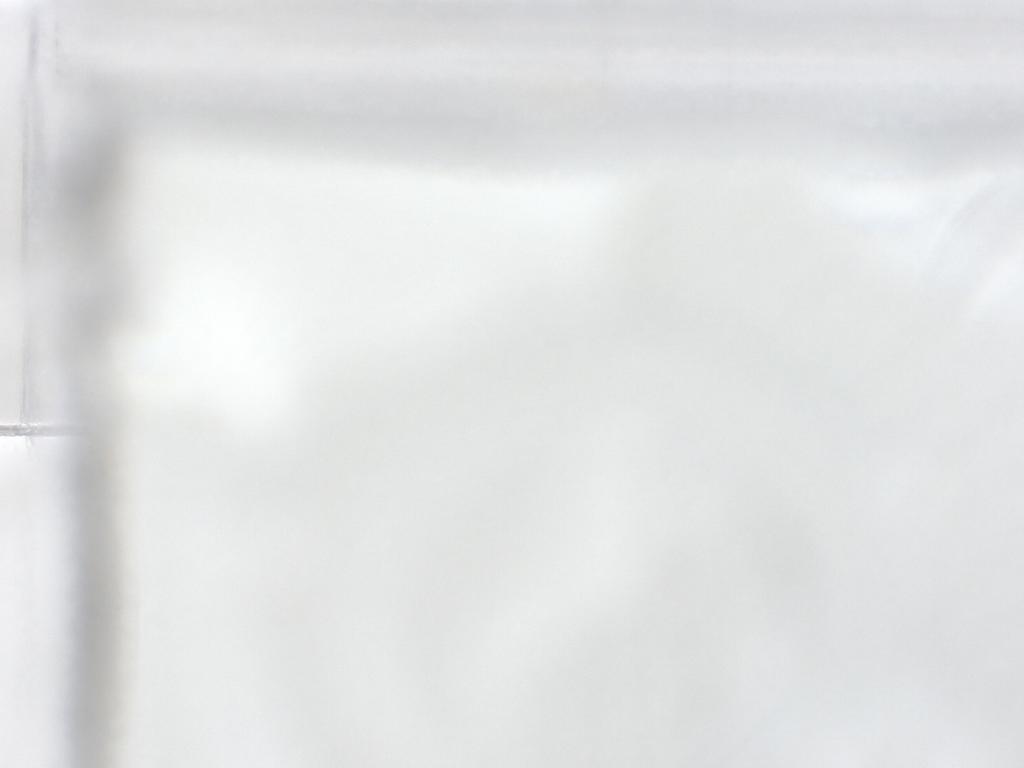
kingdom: Animalia
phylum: Arthropoda
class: Insecta
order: Hymenoptera
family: Trichogrammatidae
